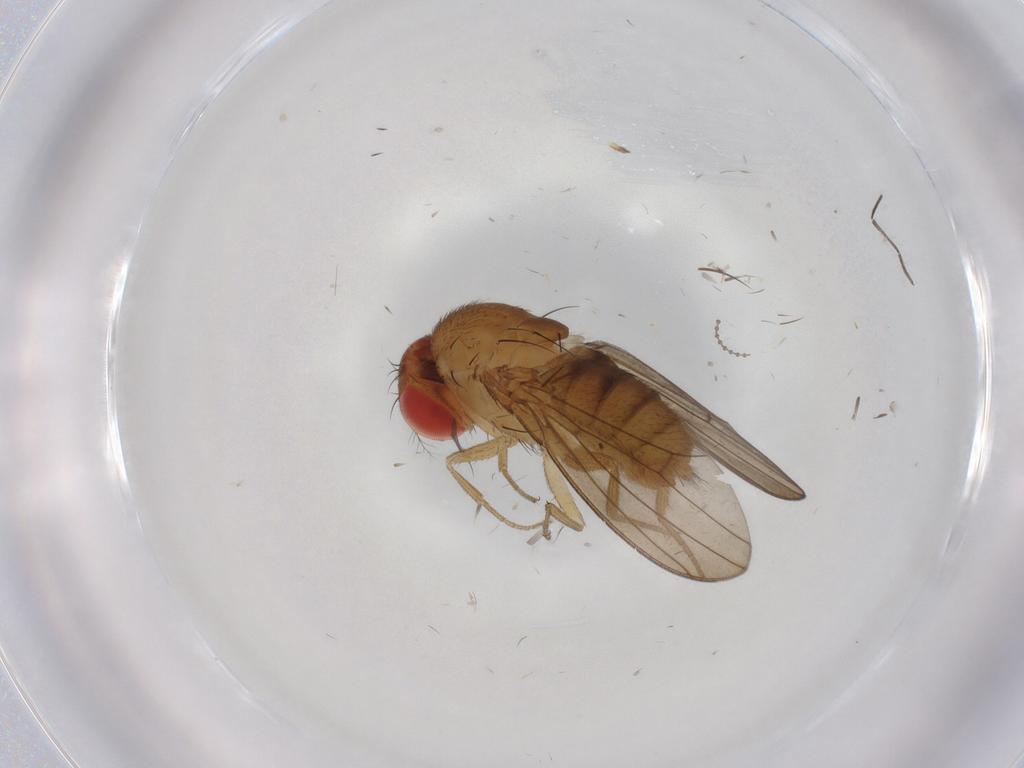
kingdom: Animalia
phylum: Arthropoda
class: Insecta
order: Diptera
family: Drosophilidae
